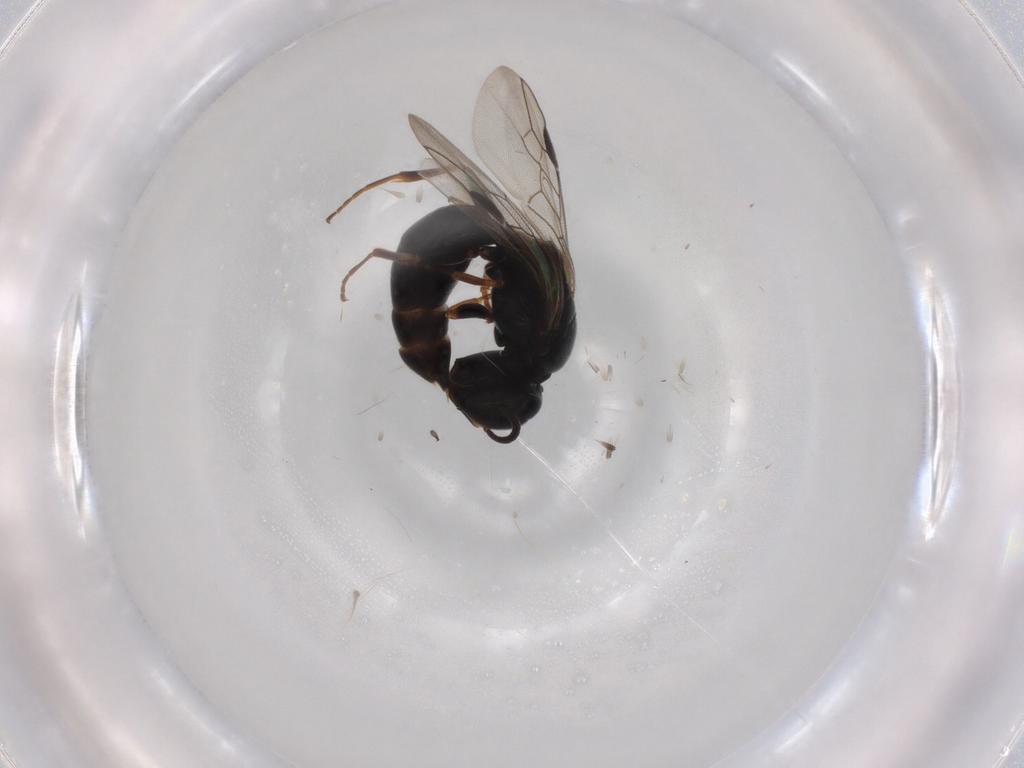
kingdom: Animalia
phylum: Arthropoda
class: Insecta
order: Hymenoptera
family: Pemphredonidae
